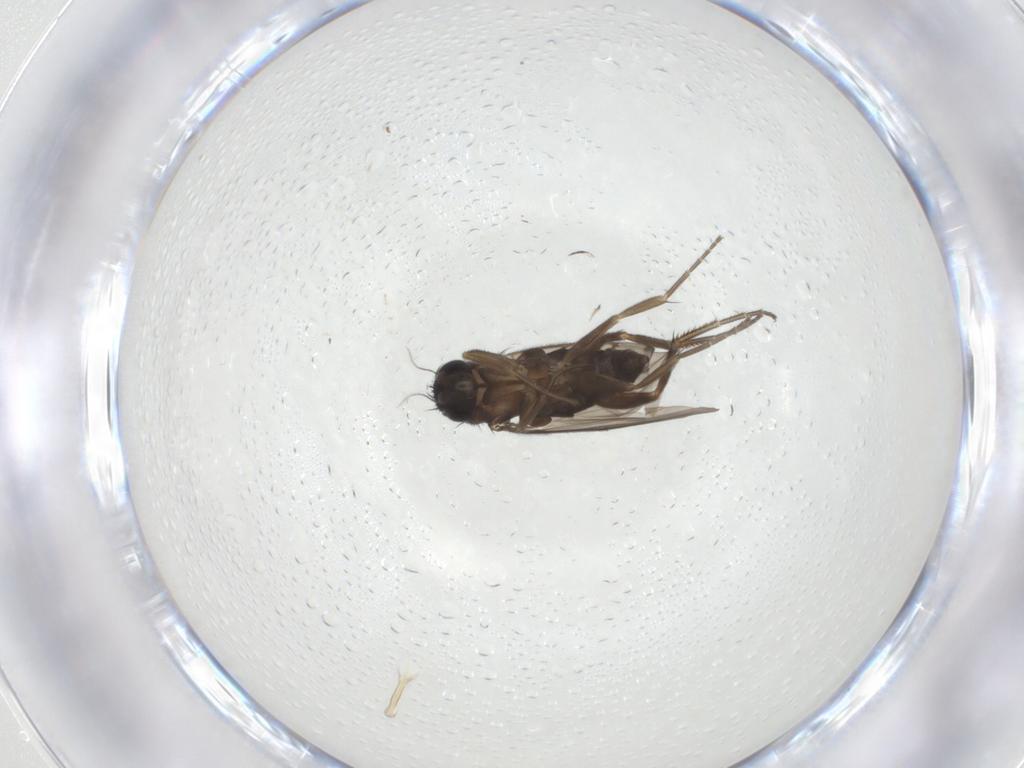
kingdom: Animalia
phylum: Arthropoda
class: Insecta
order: Diptera
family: Phoridae
